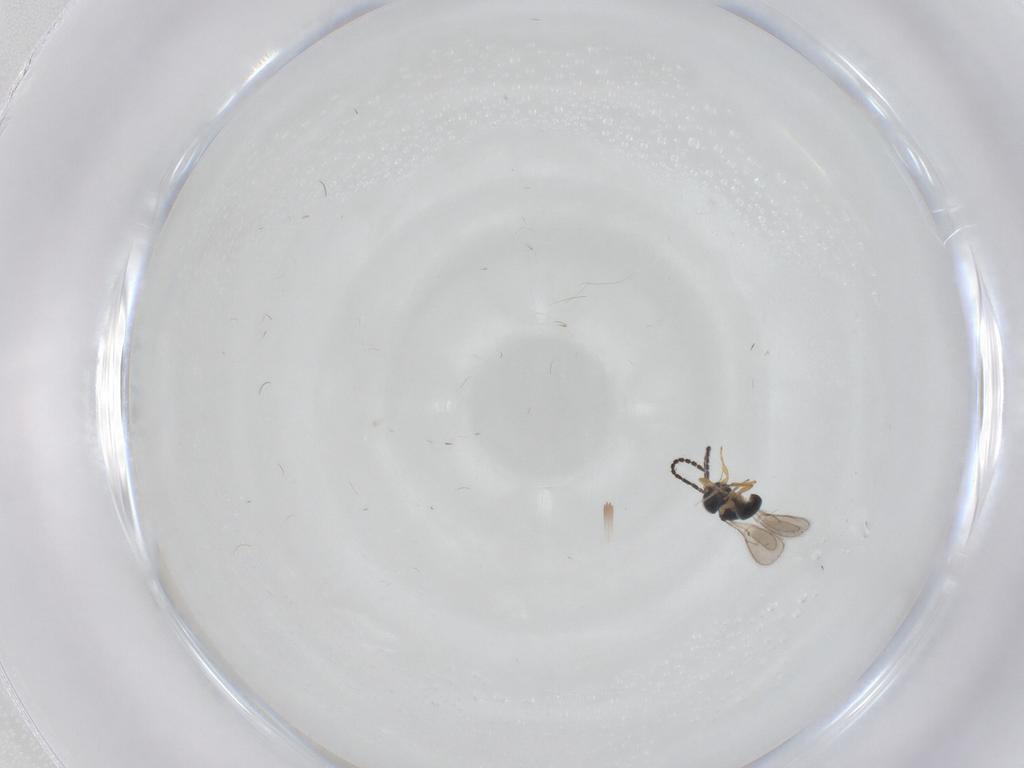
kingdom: Animalia
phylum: Arthropoda
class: Insecta
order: Hymenoptera
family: Scelionidae
